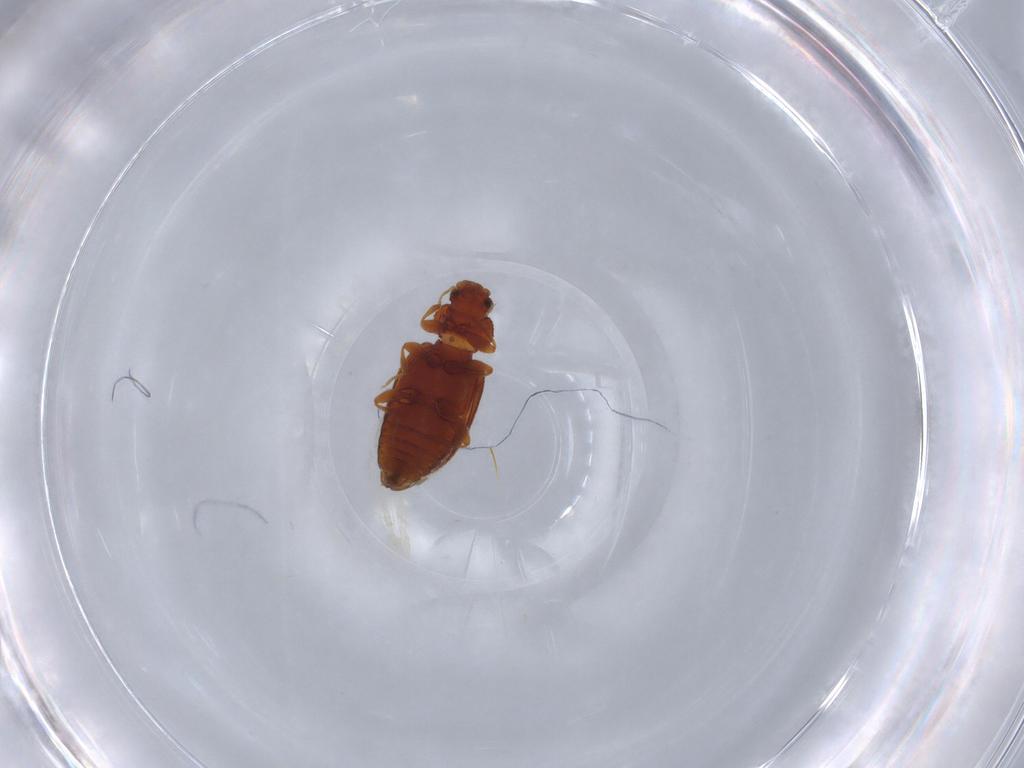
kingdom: Animalia
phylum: Arthropoda
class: Insecta
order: Coleoptera
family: Latridiidae
